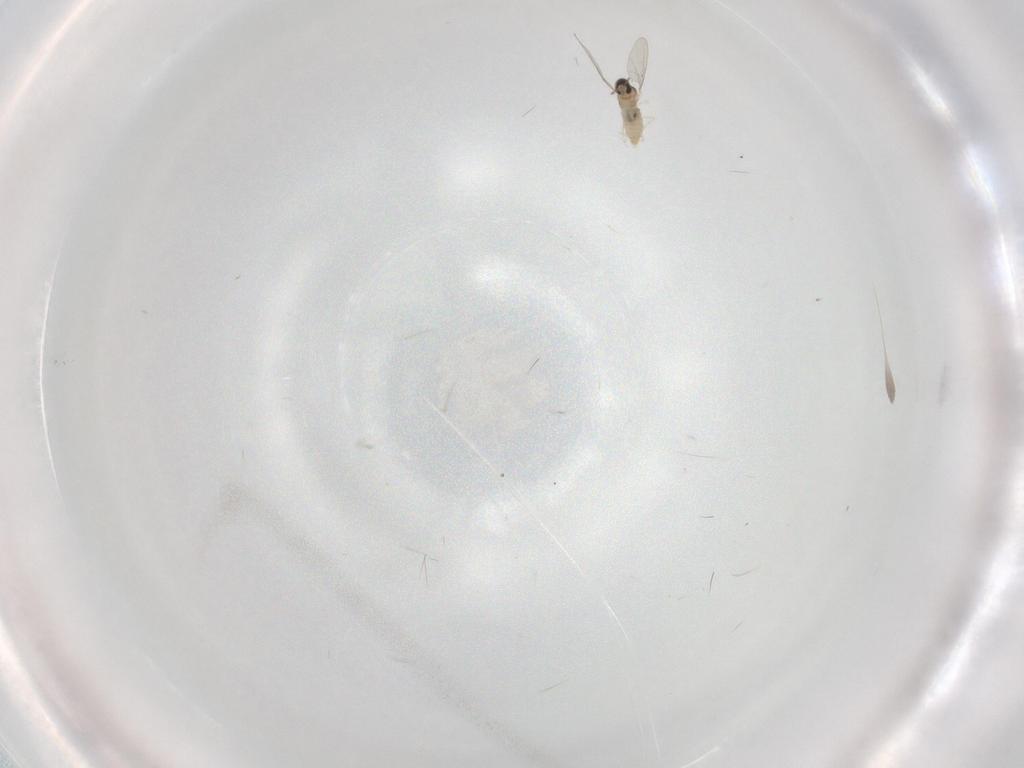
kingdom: Animalia
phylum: Arthropoda
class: Insecta
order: Diptera
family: Cecidomyiidae
